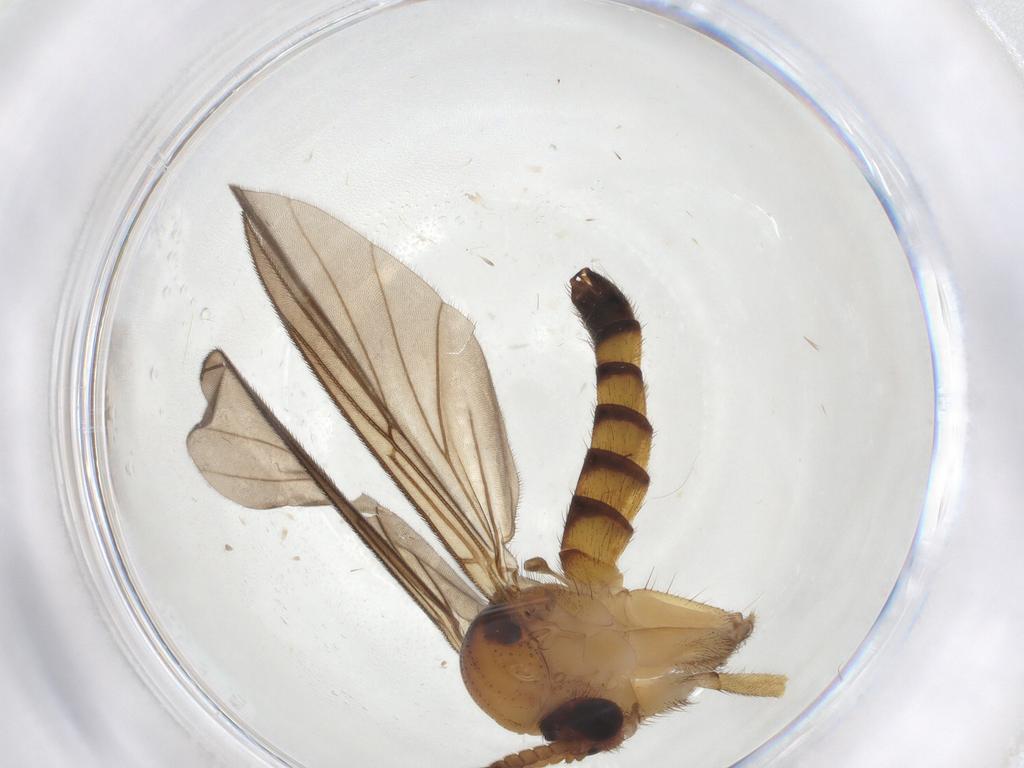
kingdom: Animalia
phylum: Arthropoda
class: Insecta
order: Diptera
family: Mycetophilidae
